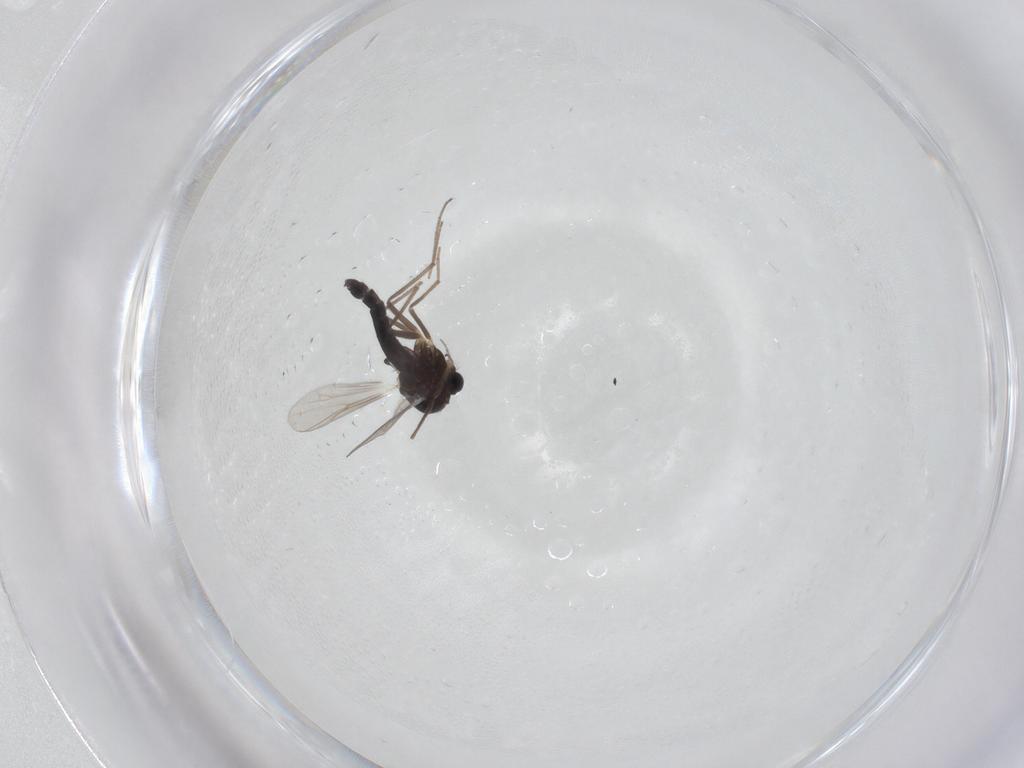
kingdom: Animalia
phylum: Arthropoda
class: Insecta
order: Diptera
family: Chironomidae
